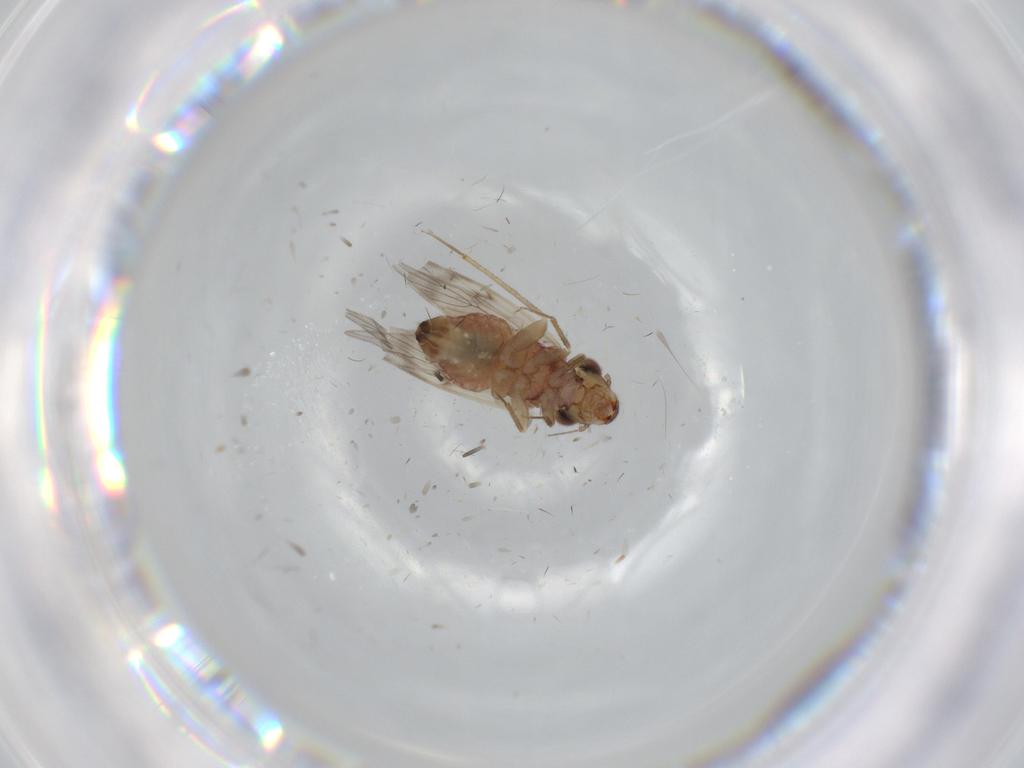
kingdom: Animalia
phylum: Arthropoda
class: Insecta
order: Psocodea
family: Lepidopsocidae
